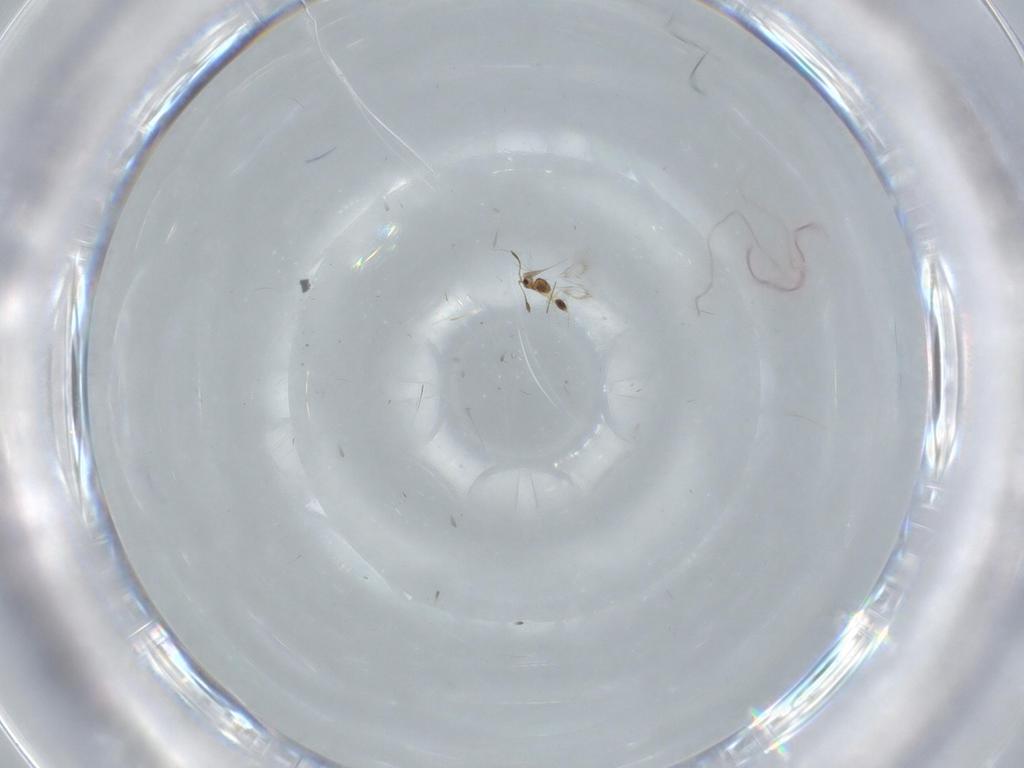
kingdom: Animalia
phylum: Arthropoda
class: Insecta
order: Hymenoptera
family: Mymarommatidae
